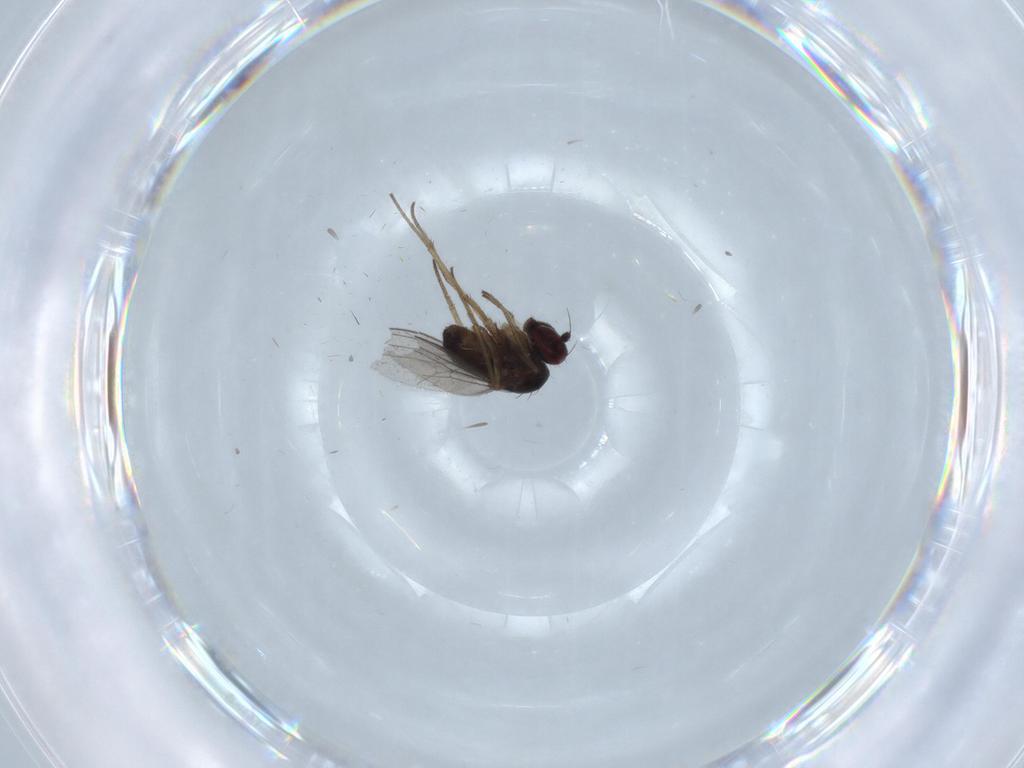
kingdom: Animalia
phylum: Arthropoda
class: Insecta
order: Diptera
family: Dolichopodidae
